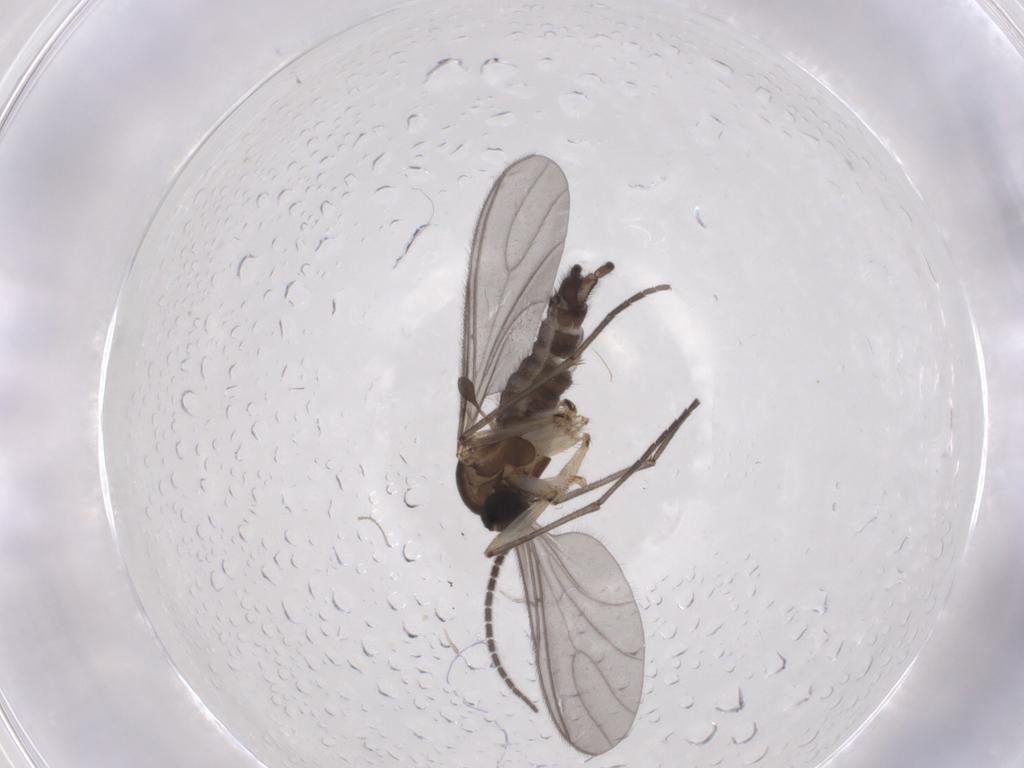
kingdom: Animalia
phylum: Arthropoda
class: Insecta
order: Diptera
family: Sciaridae
